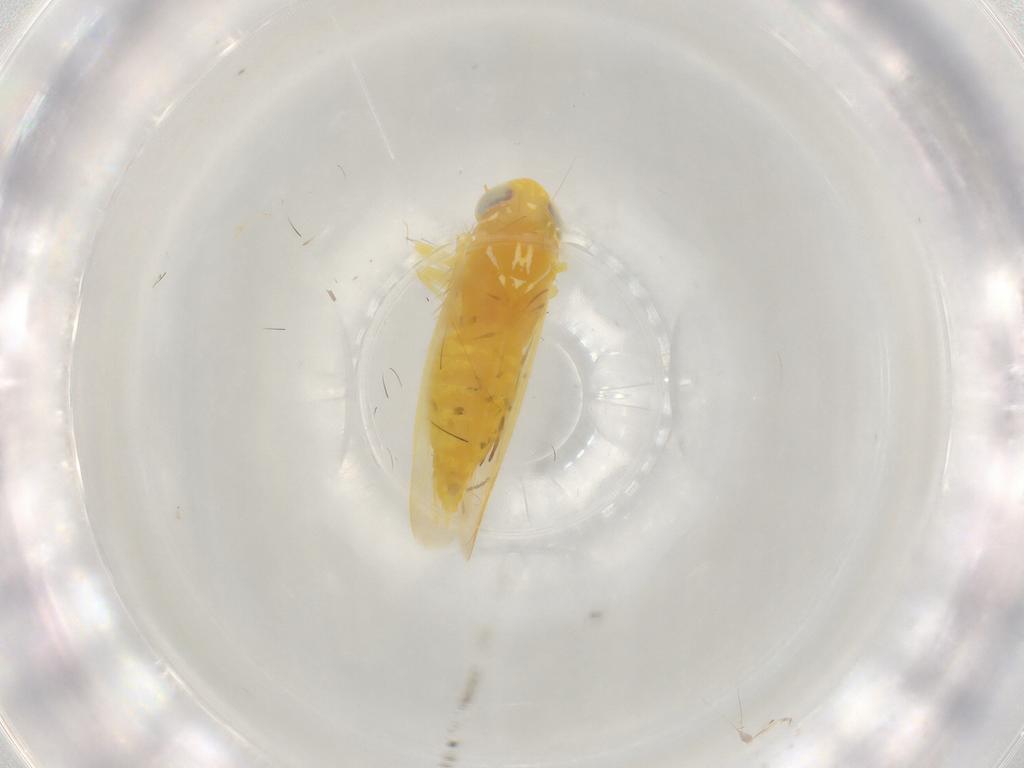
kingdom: Animalia
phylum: Arthropoda
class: Insecta
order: Hemiptera
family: Cicadellidae
